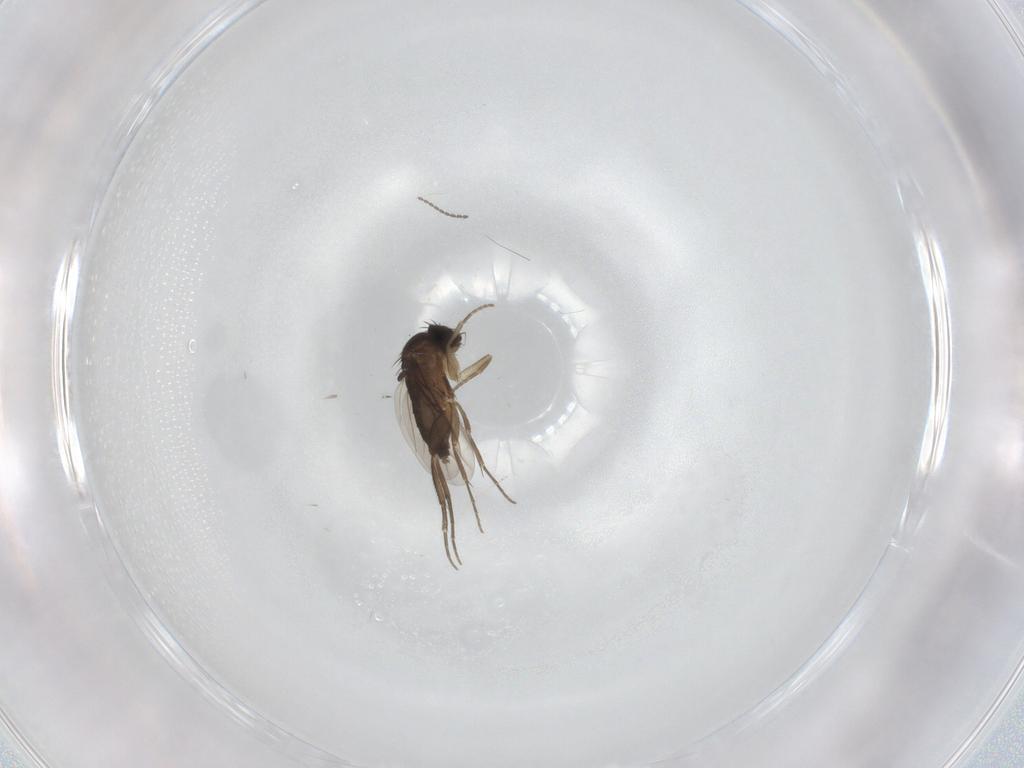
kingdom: Animalia
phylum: Arthropoda
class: Insecta
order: Diptera
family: Phoridae
